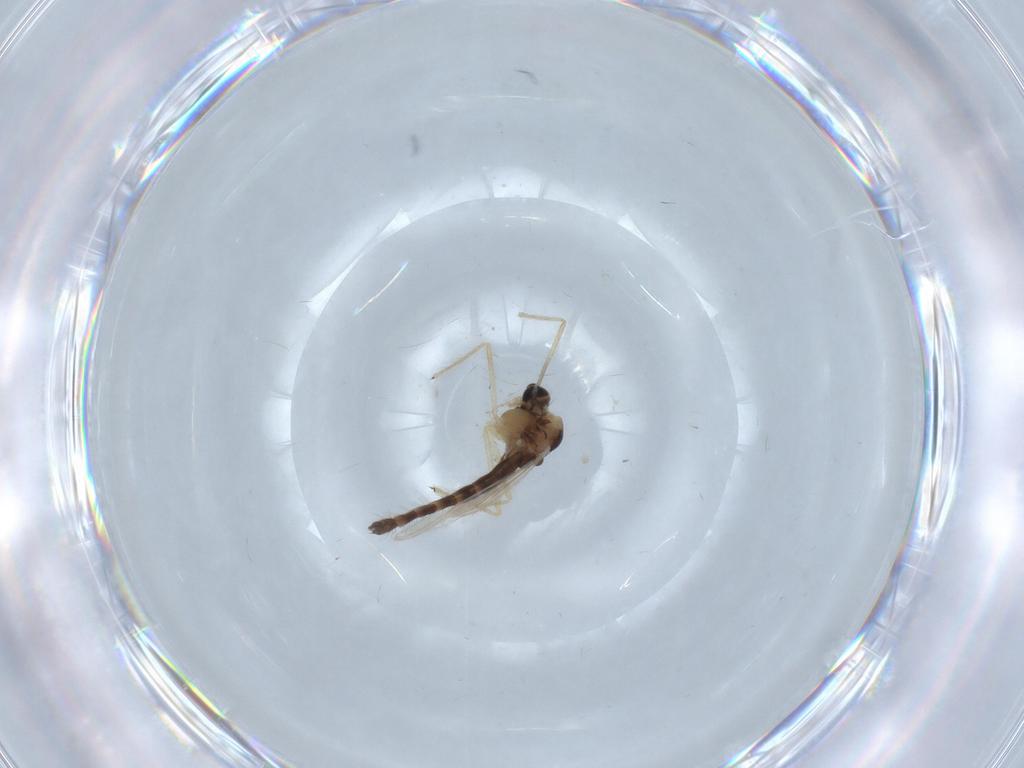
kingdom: Animalia
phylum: Arthropoda
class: Insecta
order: Diptera
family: Chironomidae
